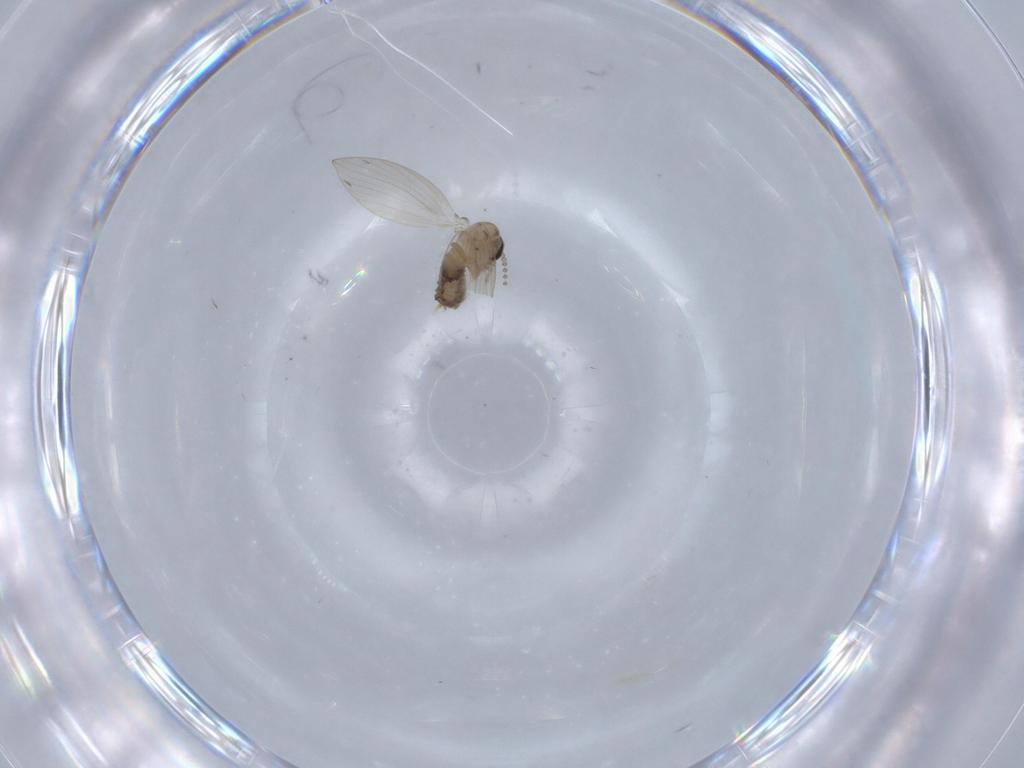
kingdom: Animalia
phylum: Arthropoda
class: Insecta
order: Diptera
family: Psychodidae
